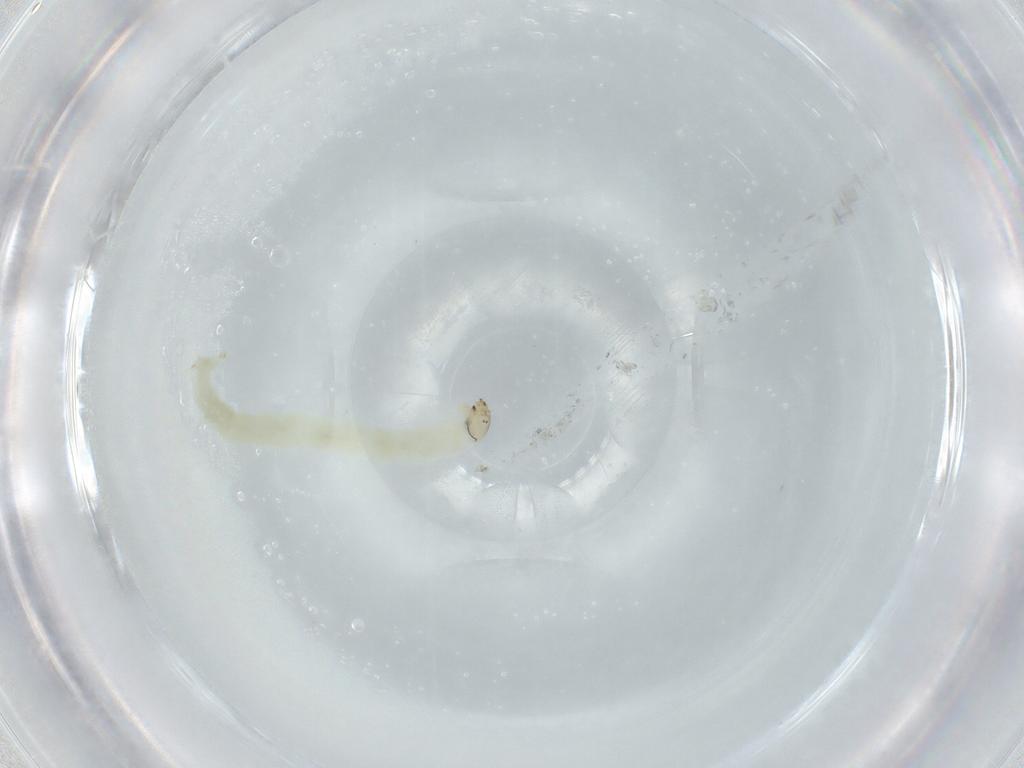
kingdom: Animalia
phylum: Arthropoda
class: Insecta
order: Diptera
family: Chironomidae
